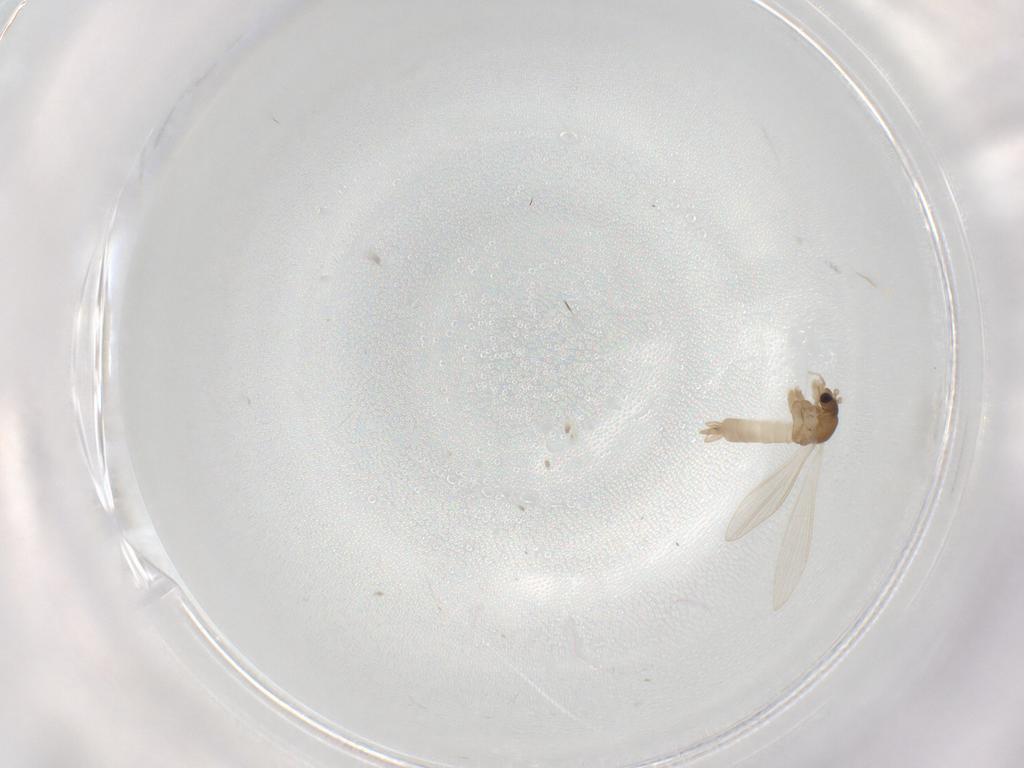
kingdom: Animalia
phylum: Arthropoda
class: Insecta
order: Diptera
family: Psychodidae
